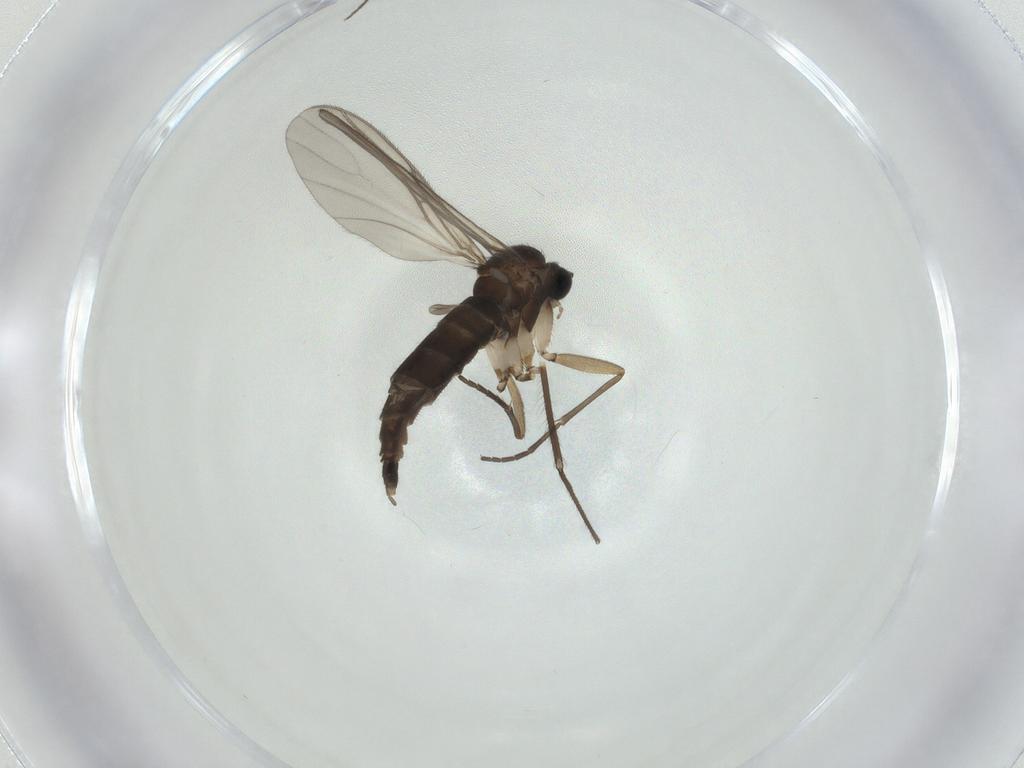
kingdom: Animalia
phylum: Arthropoda
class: Insecta
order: Diptera
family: Sciaridae
